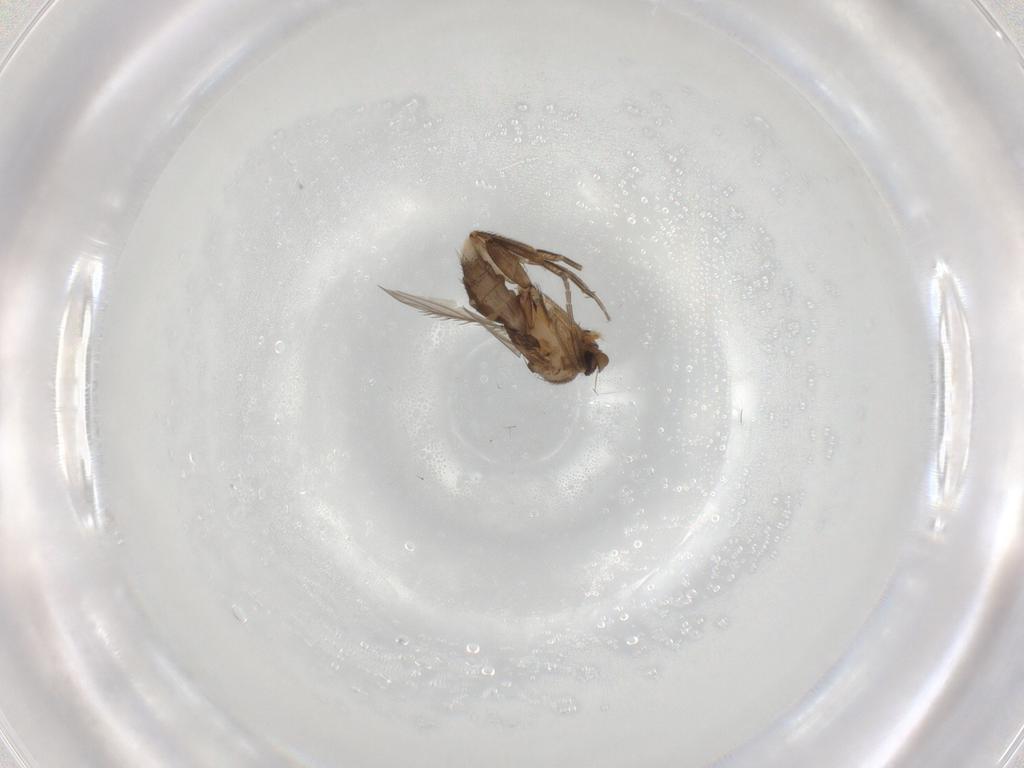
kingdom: Animalia
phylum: Arthropoda
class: Insecta
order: Diptera
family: Phoridae
